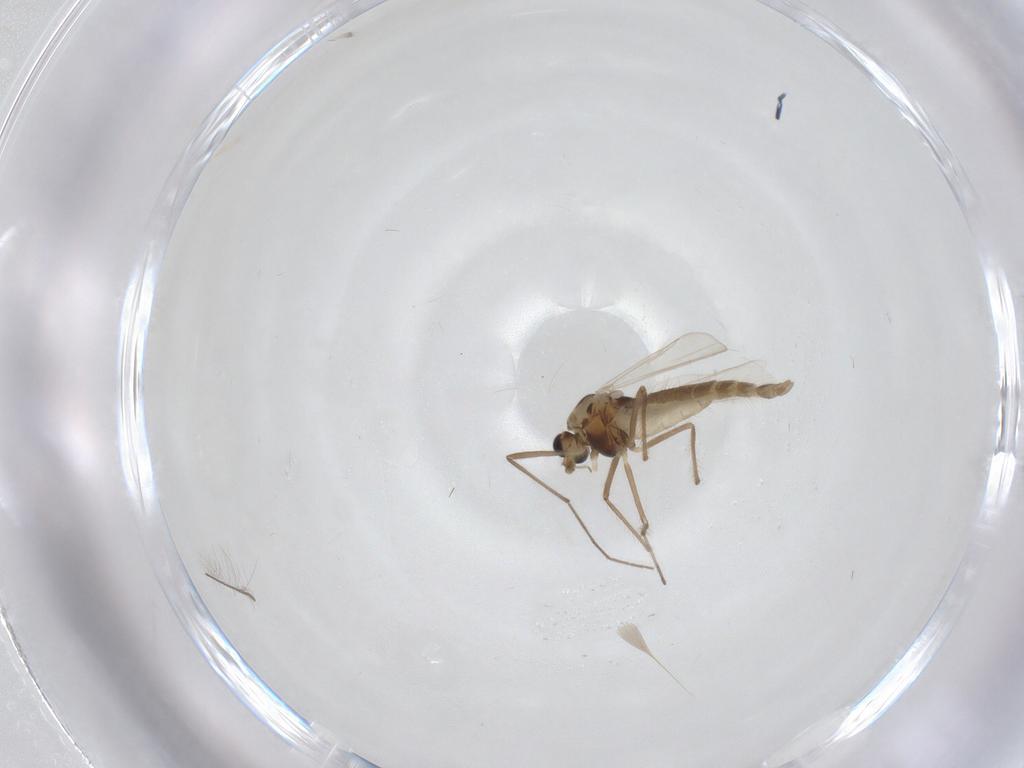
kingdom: Animalia
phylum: Arthropoda
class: Insecta
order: Diptera
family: Chironomidae
